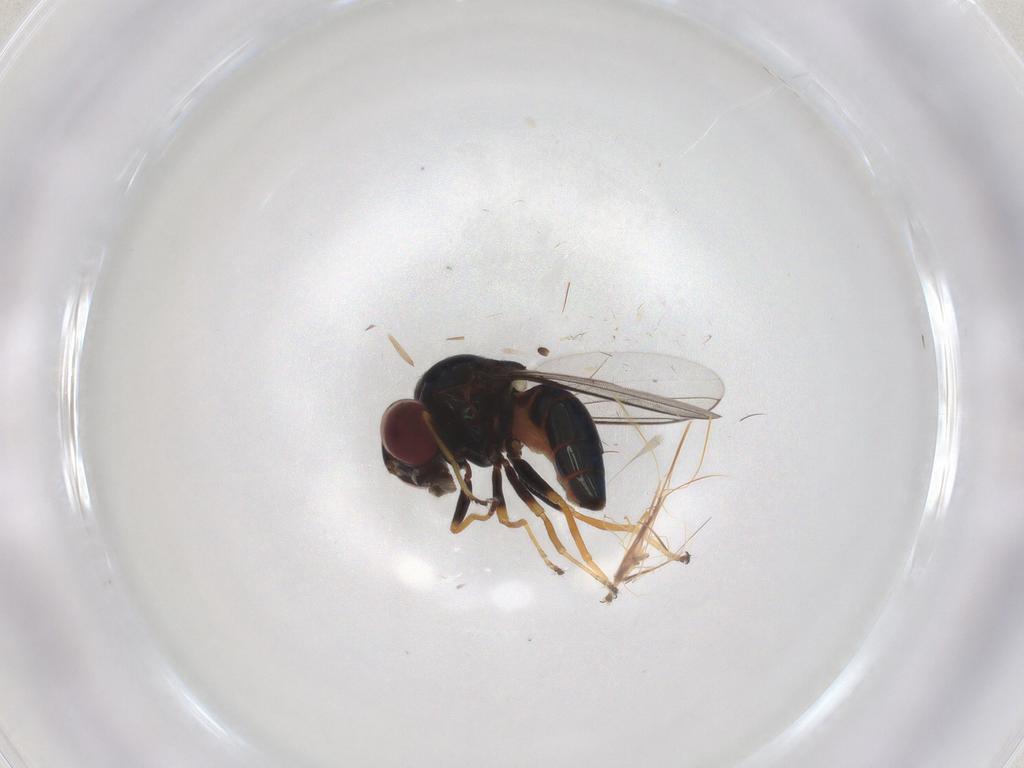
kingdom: Animalia
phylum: Arthropoda
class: Insecta
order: Diptera
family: Chloropidae
